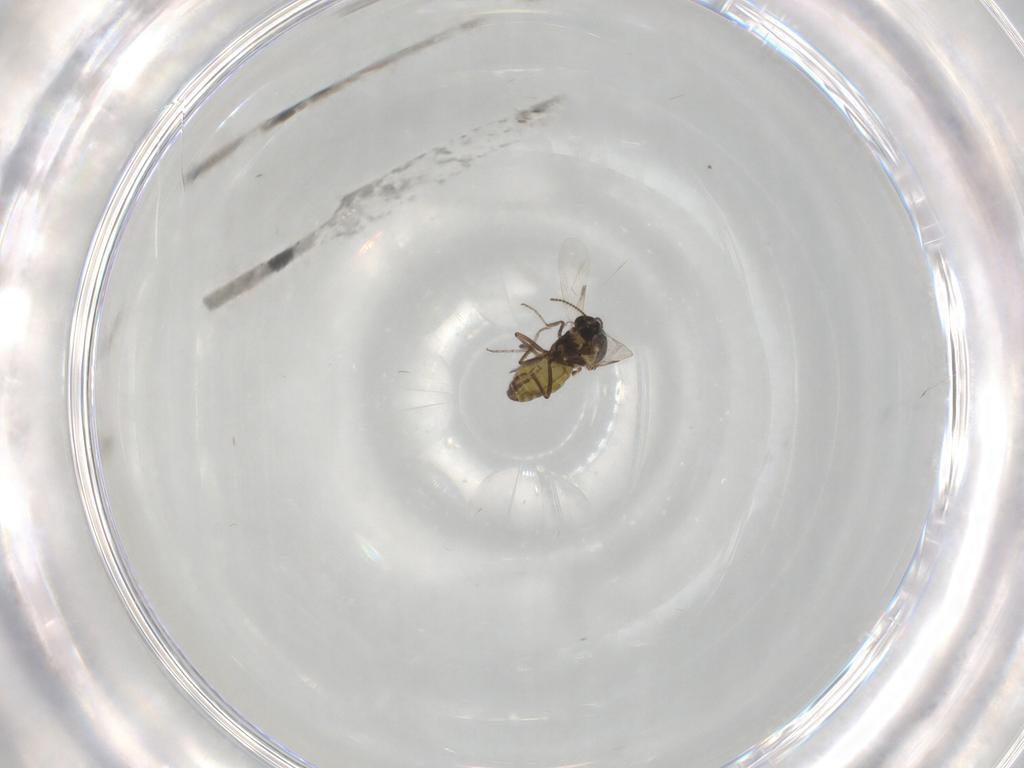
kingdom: Animalia
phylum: Arthropoda
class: Insecta
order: Diptera
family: Ceratopogonidae
